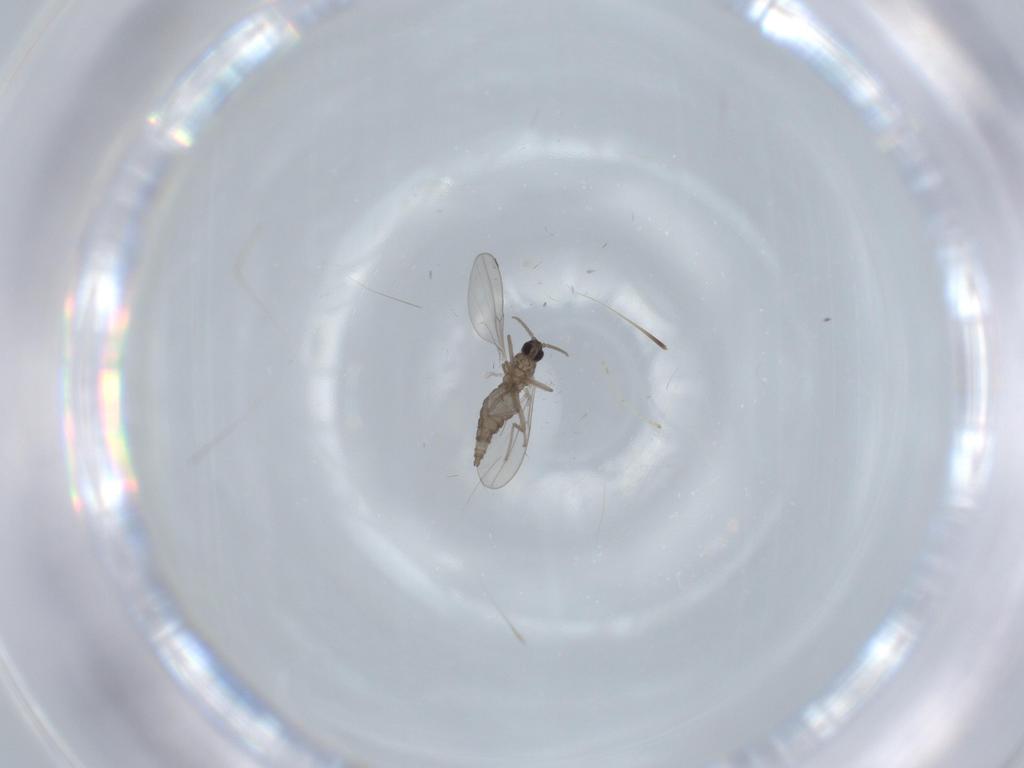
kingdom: Animalia
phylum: Arthropoda
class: Insecta
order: Diptera
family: Cecidomyiidae
